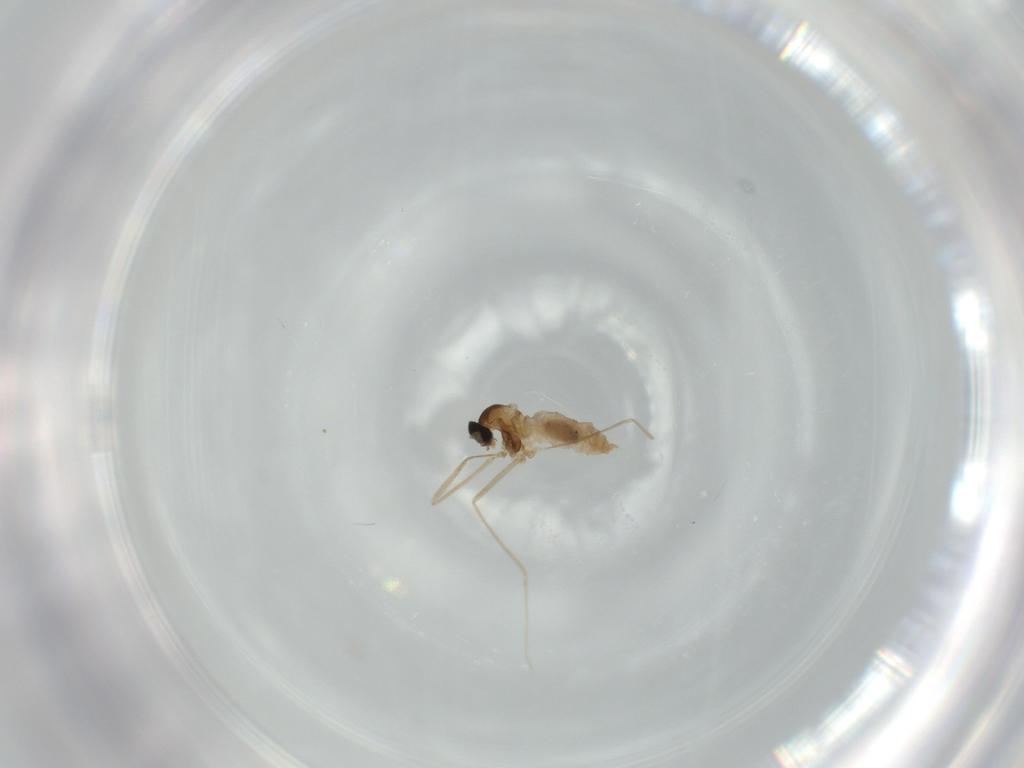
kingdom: Animalia
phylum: Arthropoda
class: Insecta
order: Diptera
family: Cecidomyiidae
